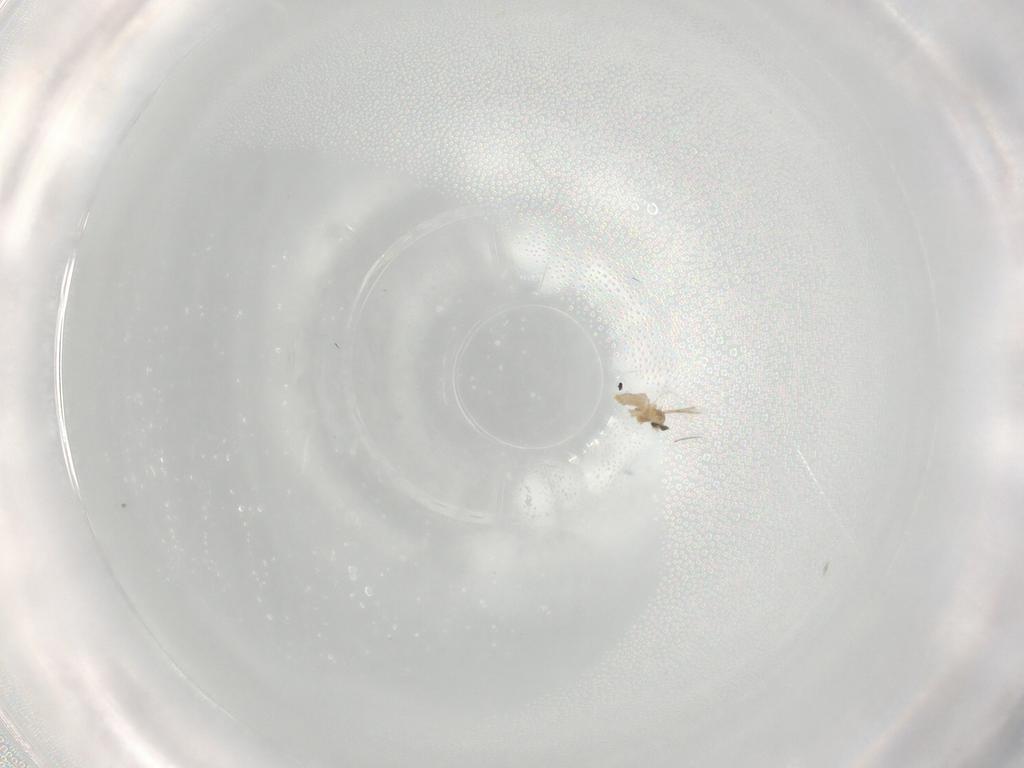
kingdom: Animalia
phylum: Arthropoda
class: Insecta
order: Diptera
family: Cecidomyiidae
